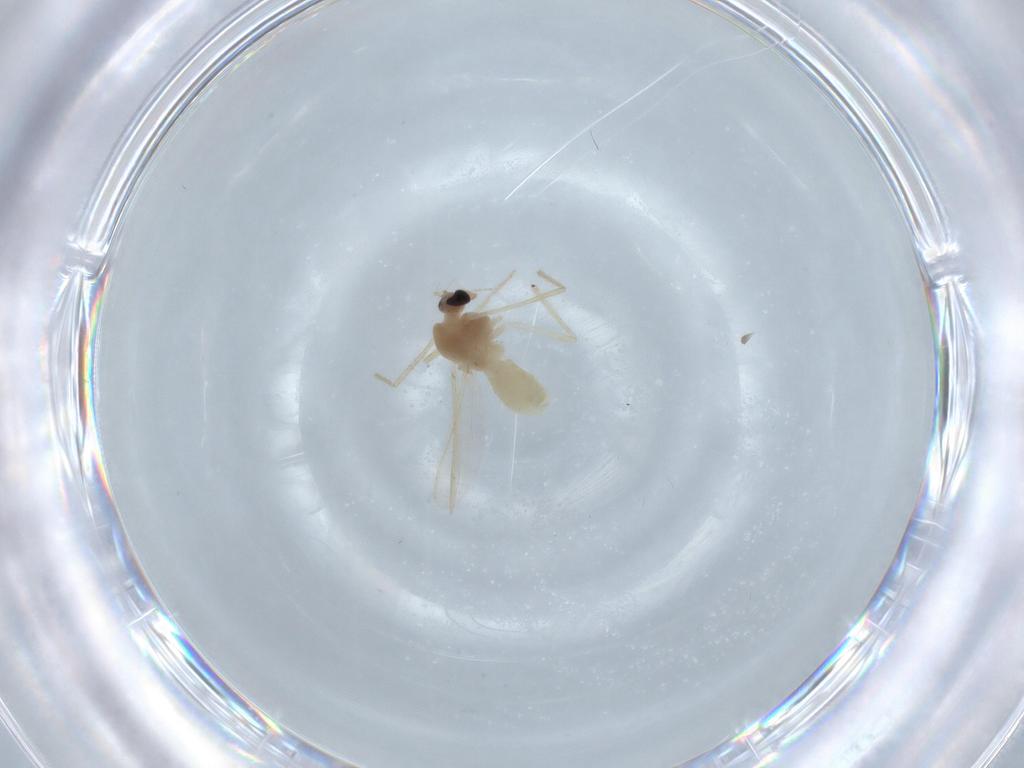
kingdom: Animalia
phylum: Arthropoda
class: Insecta
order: Diptera
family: Chironomidae
